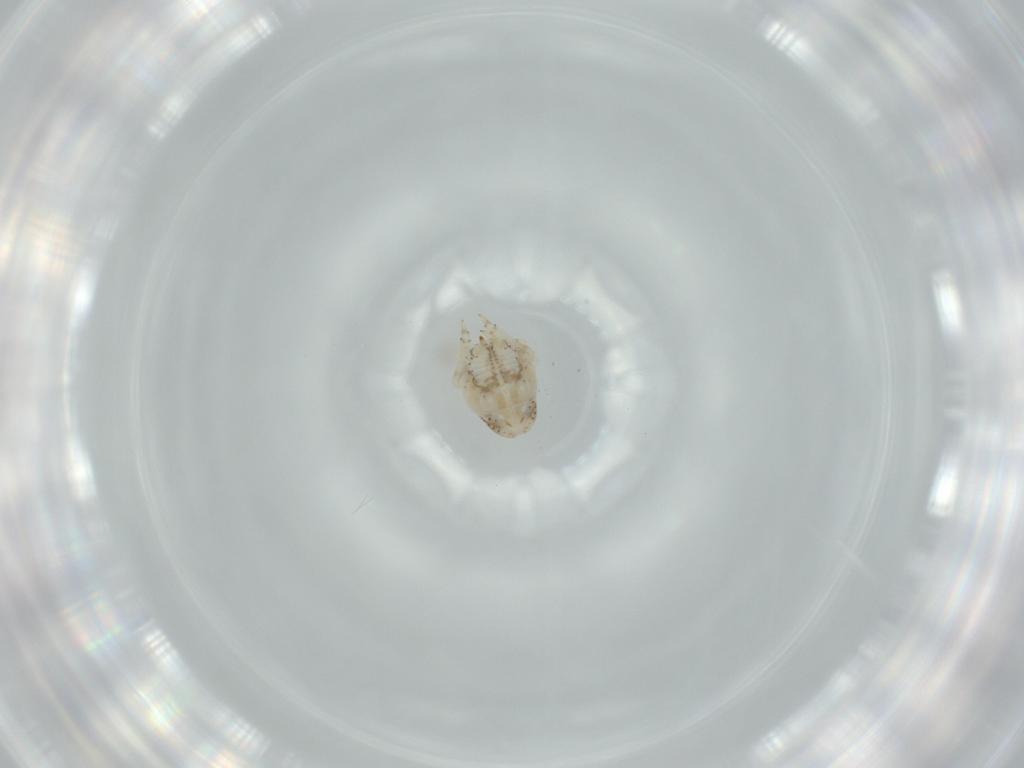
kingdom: Animalia
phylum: Arthropoda
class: Insecta
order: Hemiptera
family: Acanaloniidae
